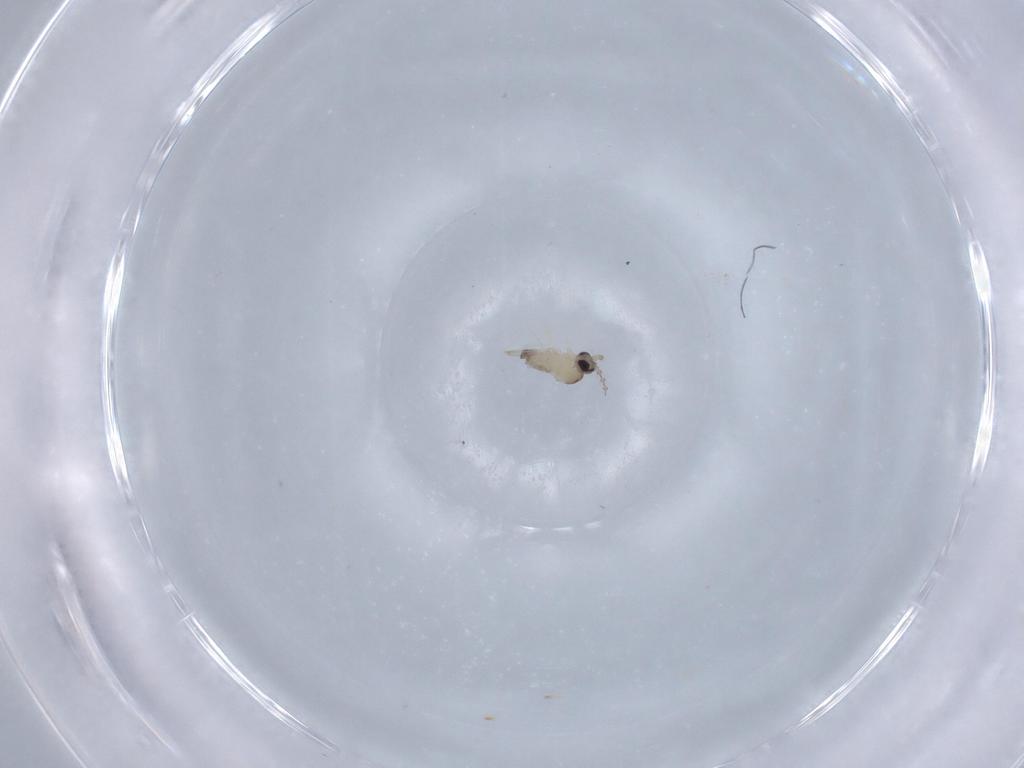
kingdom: Animalia
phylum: Arthropoda
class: Insecta
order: Diptera
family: Cecidomyiidae
